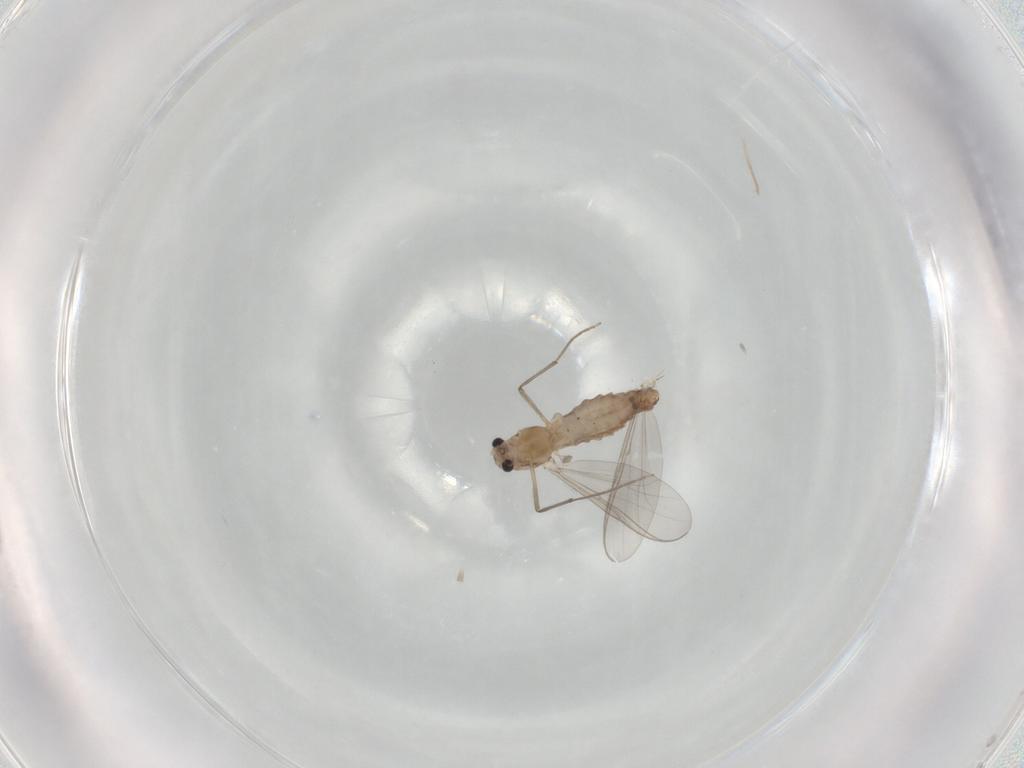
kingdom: Animalia
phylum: Arthropoda
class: Insecta
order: Diptera
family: Chironomidae
